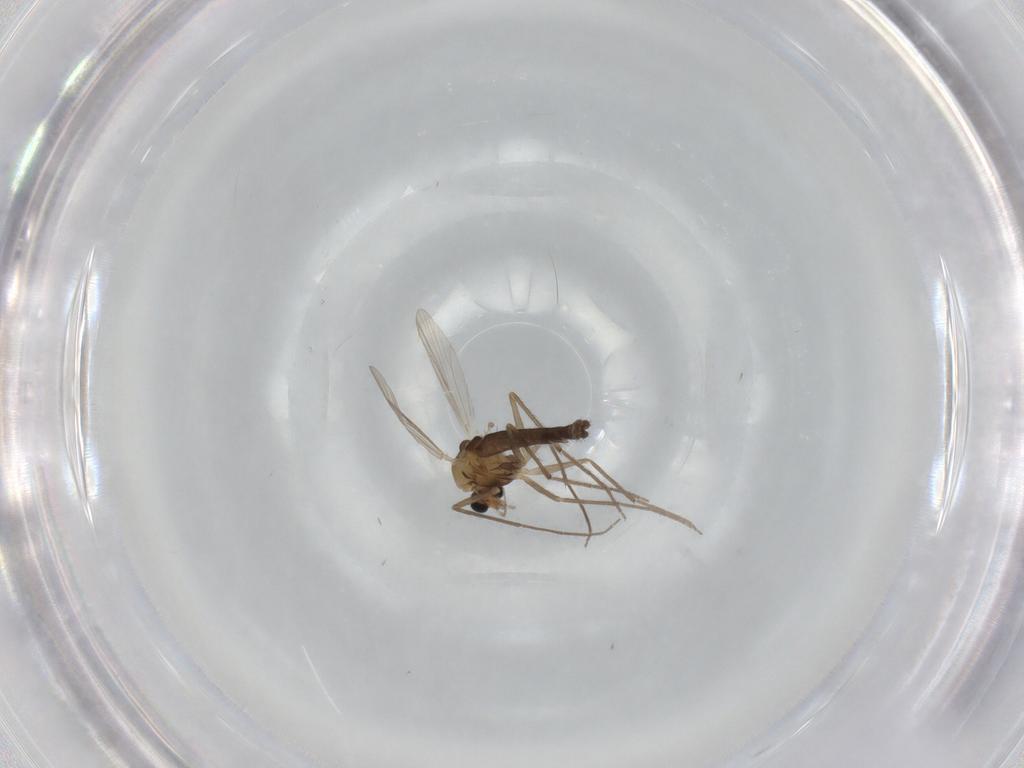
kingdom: Animalia
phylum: Arthropoda
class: Insecta
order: Diptera
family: Chironomidae
